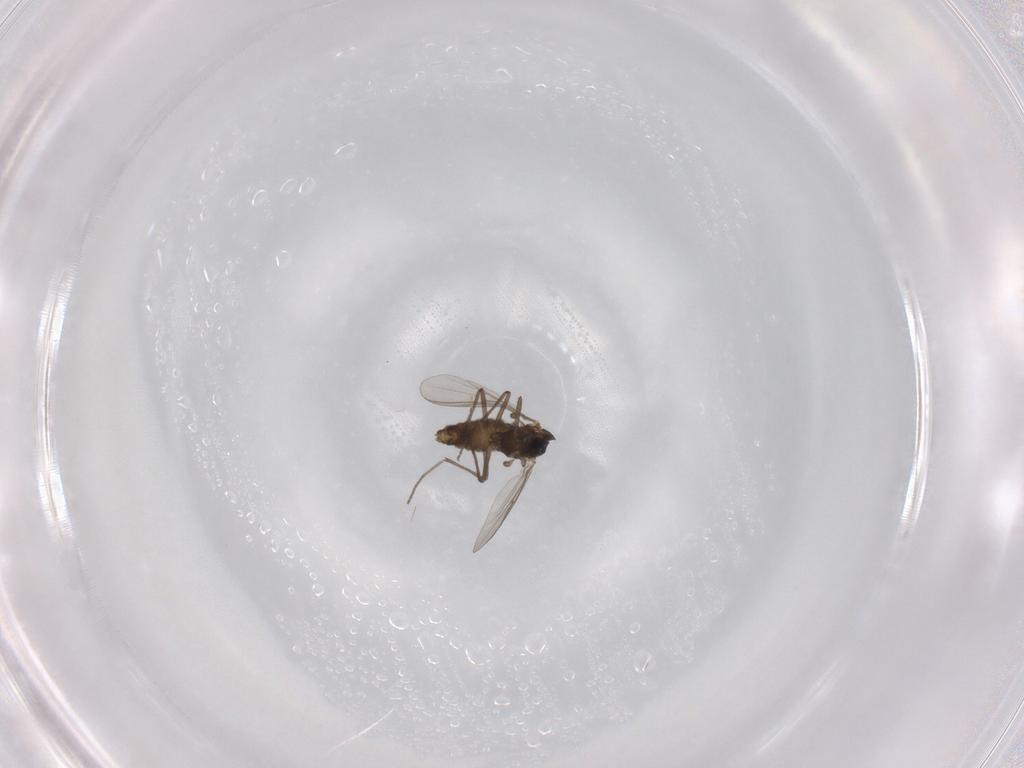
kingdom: Animalia
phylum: Arthropoda
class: Insecta
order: Diptera
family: Chironomidae
